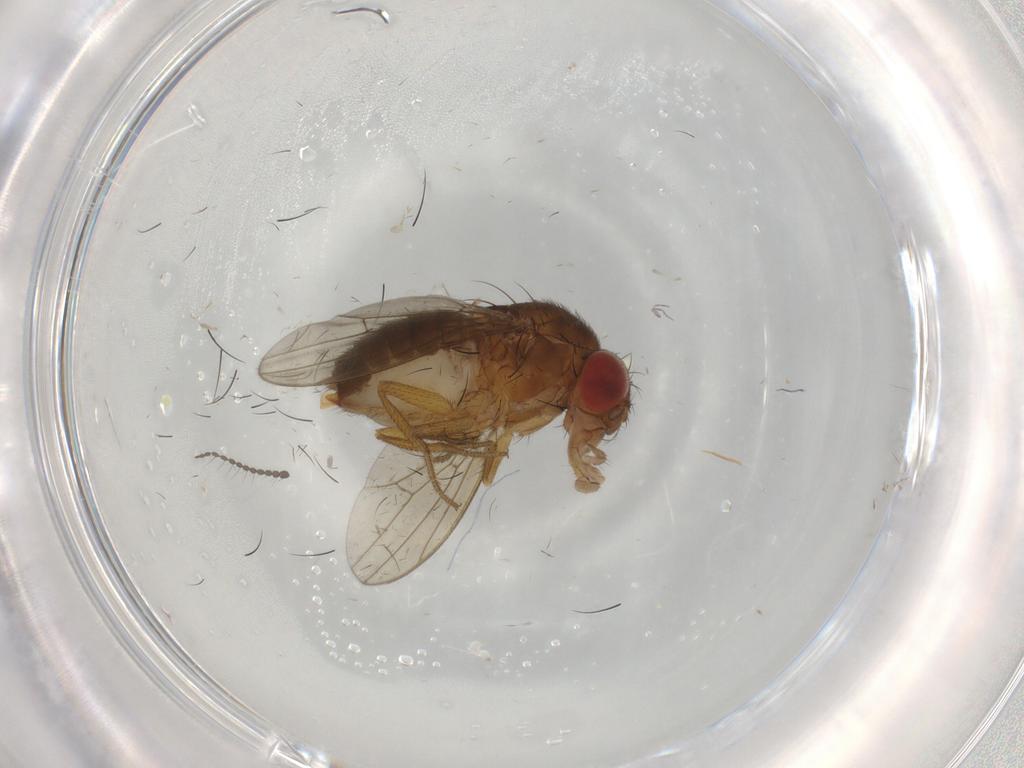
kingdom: Animalia
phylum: Arthropoda
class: Insecta
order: Diptera
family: Drosophilidae
